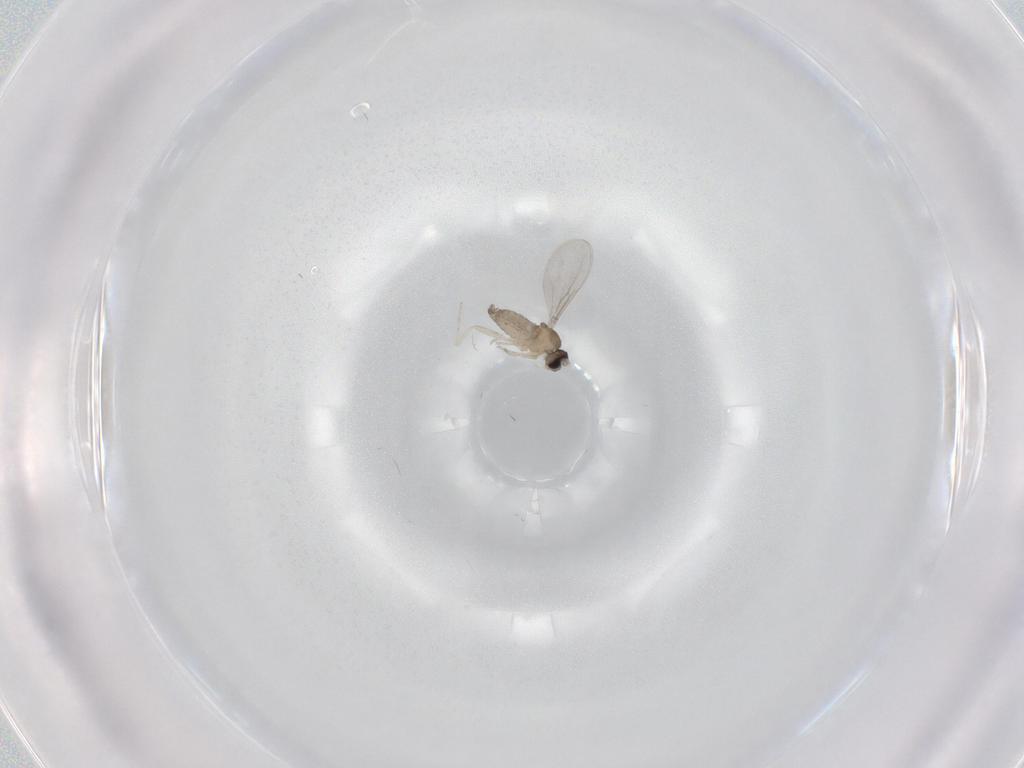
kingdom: Animalia
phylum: Arthropoda
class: Insecta
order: Diptera
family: Cecidomyiidae
